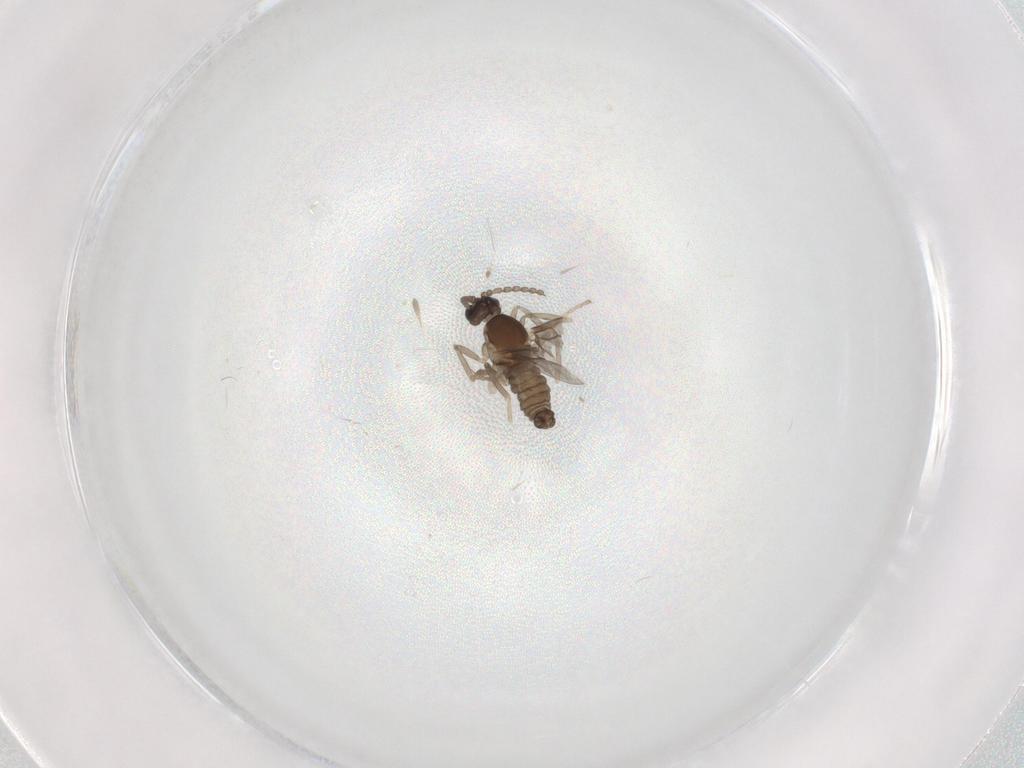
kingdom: Animalia
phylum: Arthropoda
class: Insecta
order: Diptera
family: Cecidomyiidae
